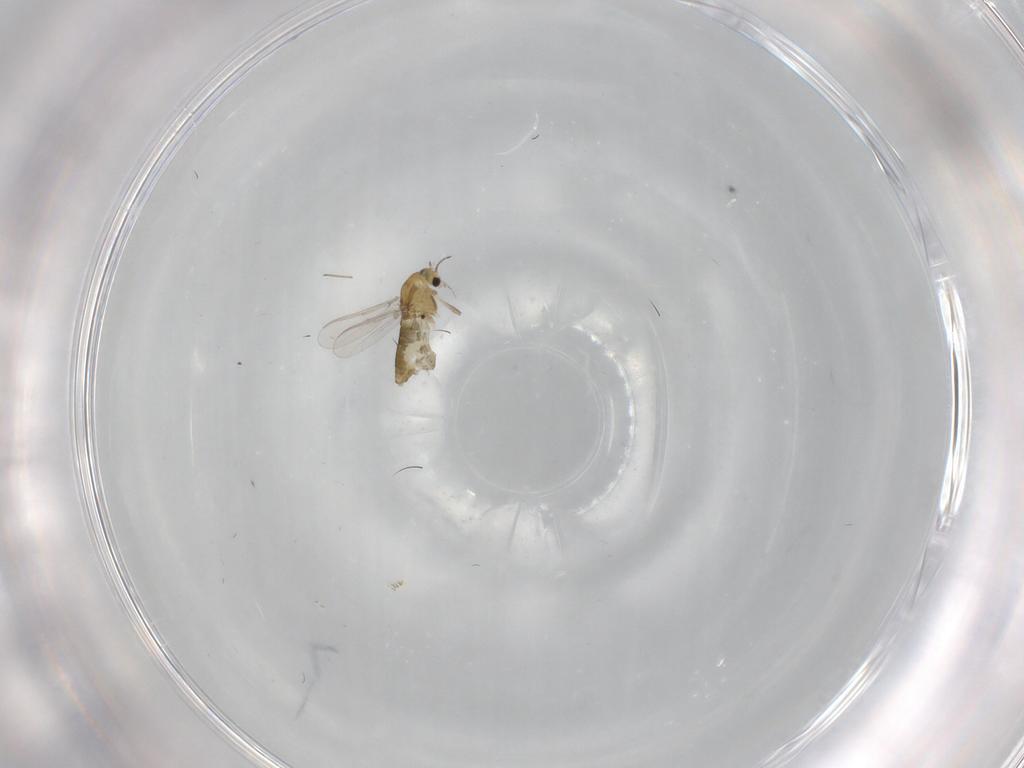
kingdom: Animalia
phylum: Arthropoda
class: Insecta
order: Diptera
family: Chironomidae
